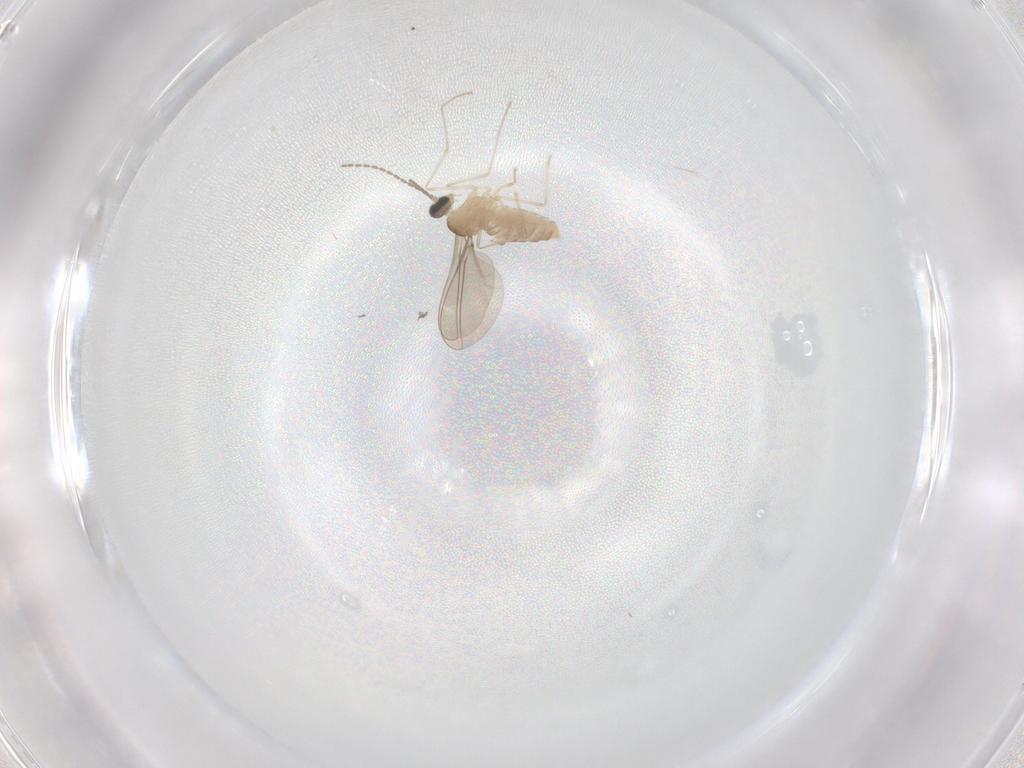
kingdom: Animalia
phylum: Arthropoda
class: Insecta
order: Diptera
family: Cecidomyiidae
